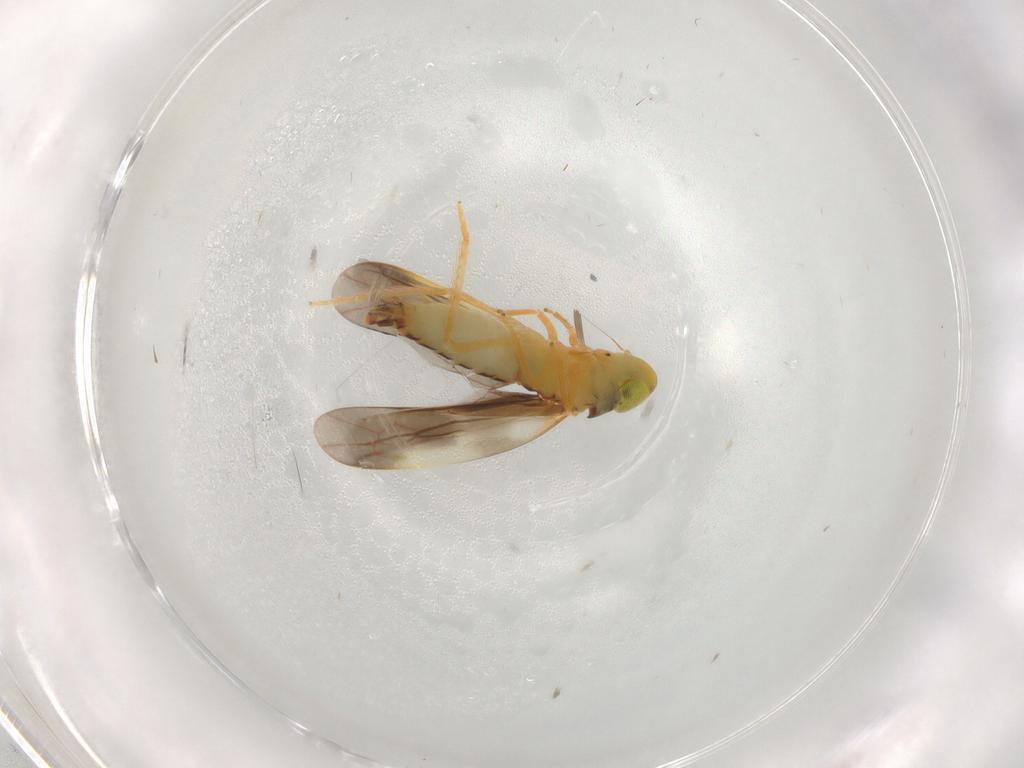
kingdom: Animalia
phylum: Arthropoda
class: Insecta
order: Hemiptera
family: Cicadellidae
